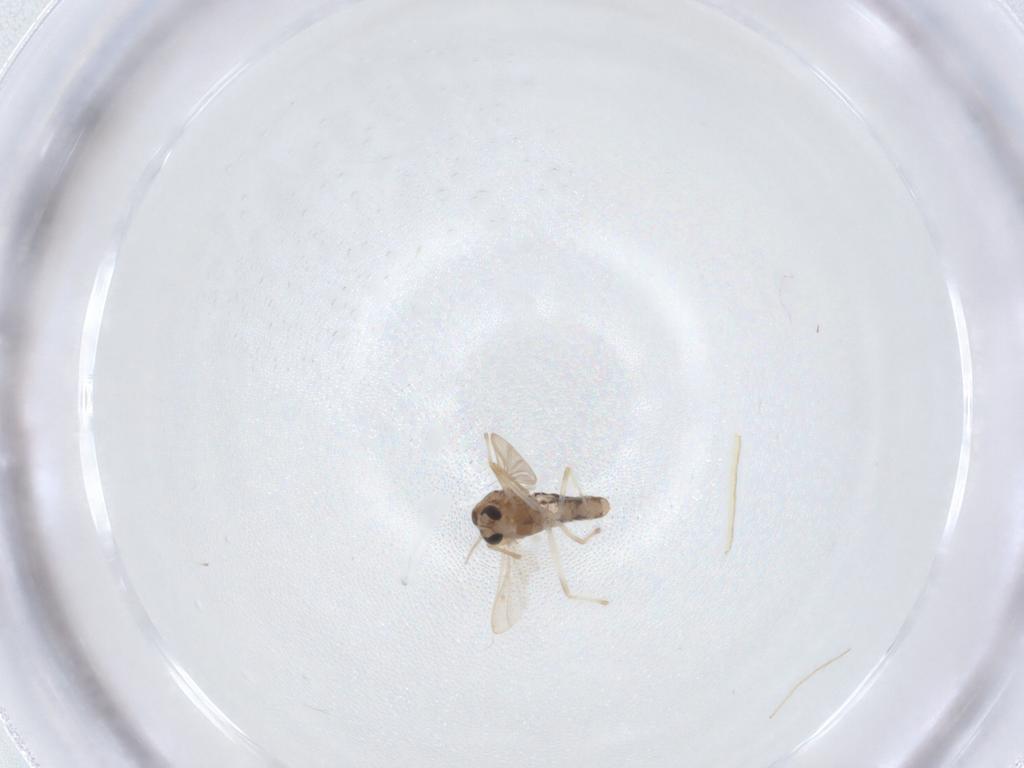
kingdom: Animalia
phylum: Arthropoda
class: Insecta
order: Diptera
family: Chironomidae
